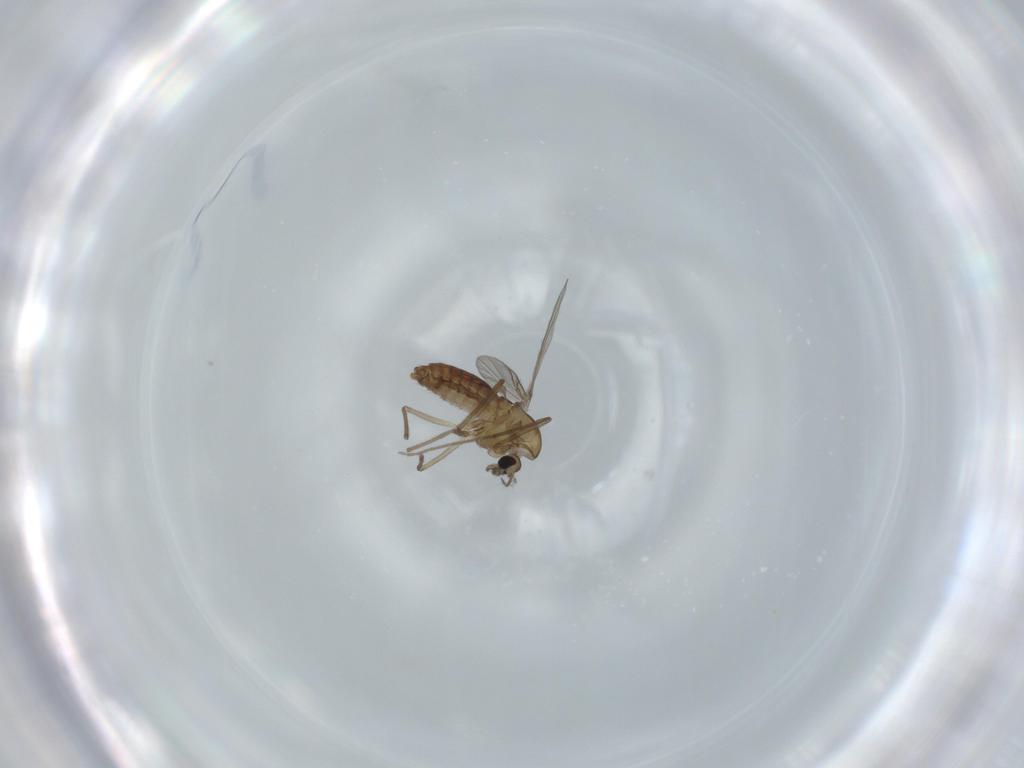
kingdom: Animalia
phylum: Arthropoda
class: Insecta
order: Diptera
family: Chironomidae
